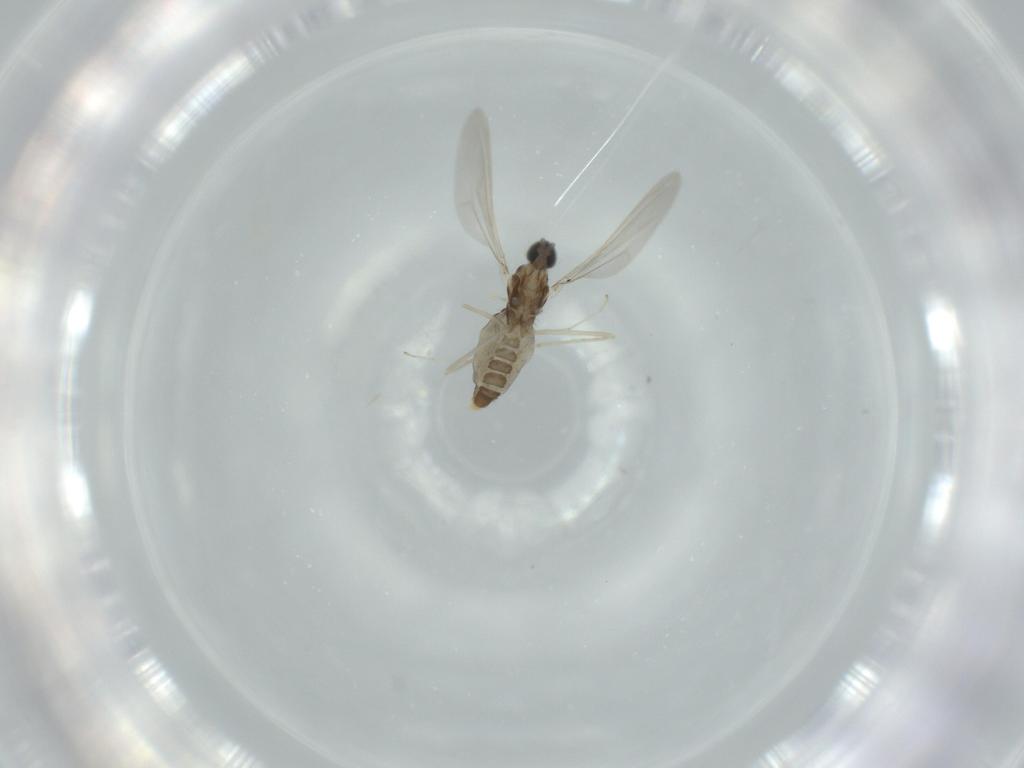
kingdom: Animalia
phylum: Arthropoda
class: Insecta
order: Diptera
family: Cecidomyiidae
